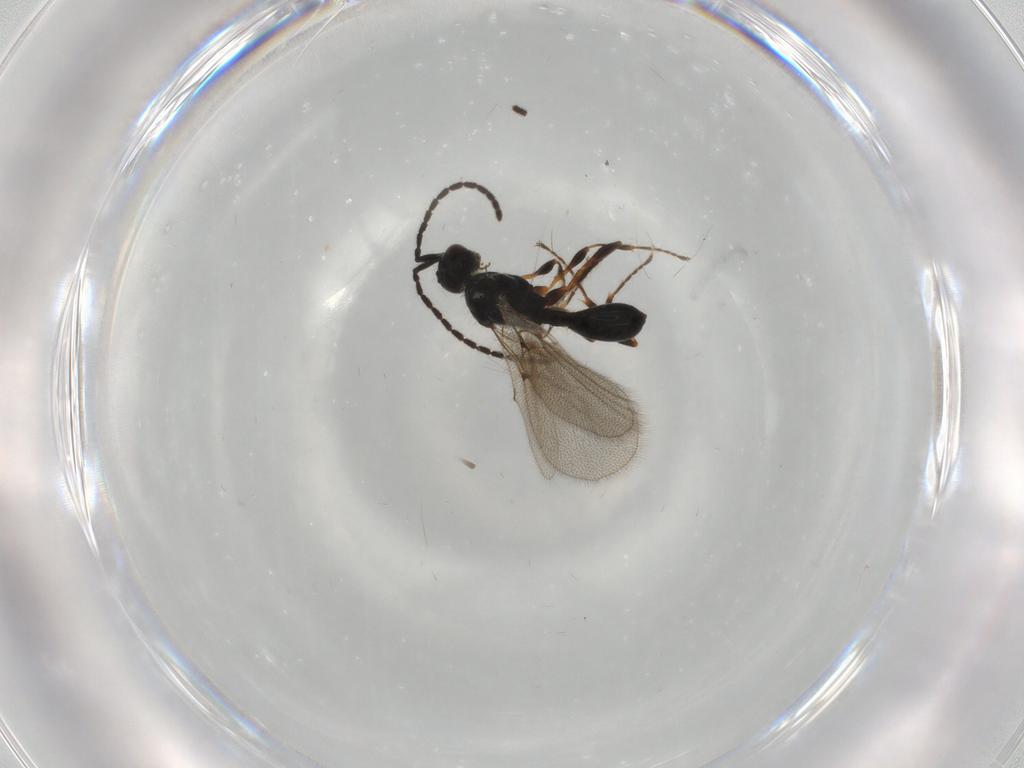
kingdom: Animalia
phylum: Arthropoda
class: Insecta
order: Hymenoptera
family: Diapriidae
